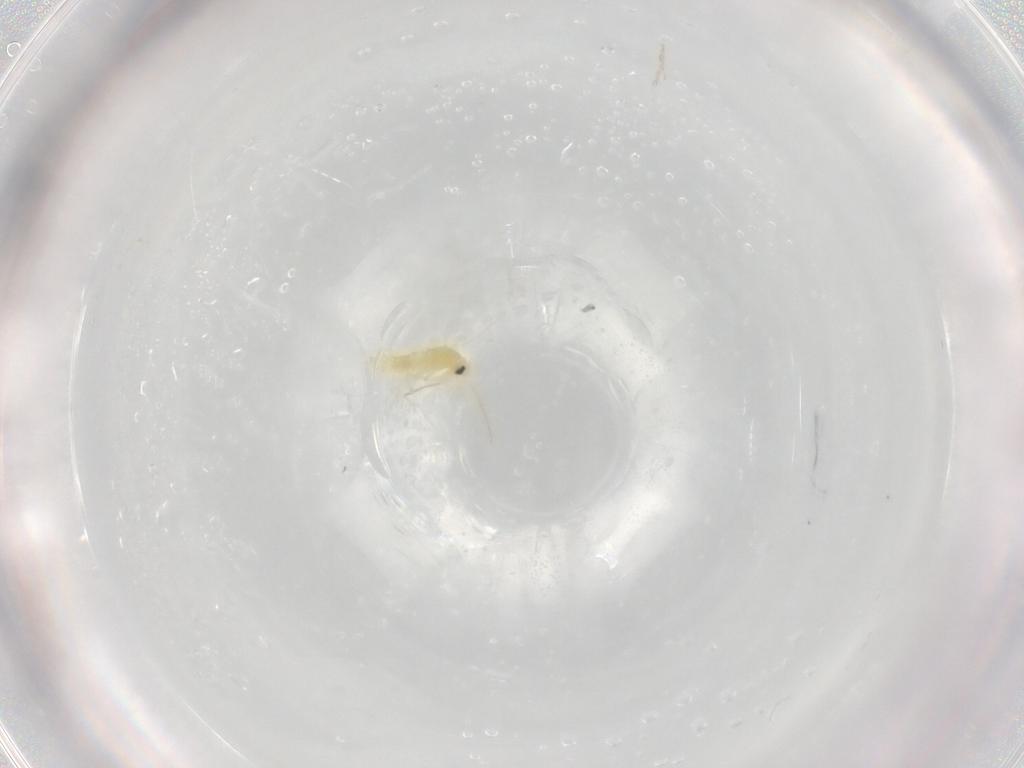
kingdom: Animalia
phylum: Arthropoda
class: Insecta
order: Hemiptera
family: Aleyrodidae
